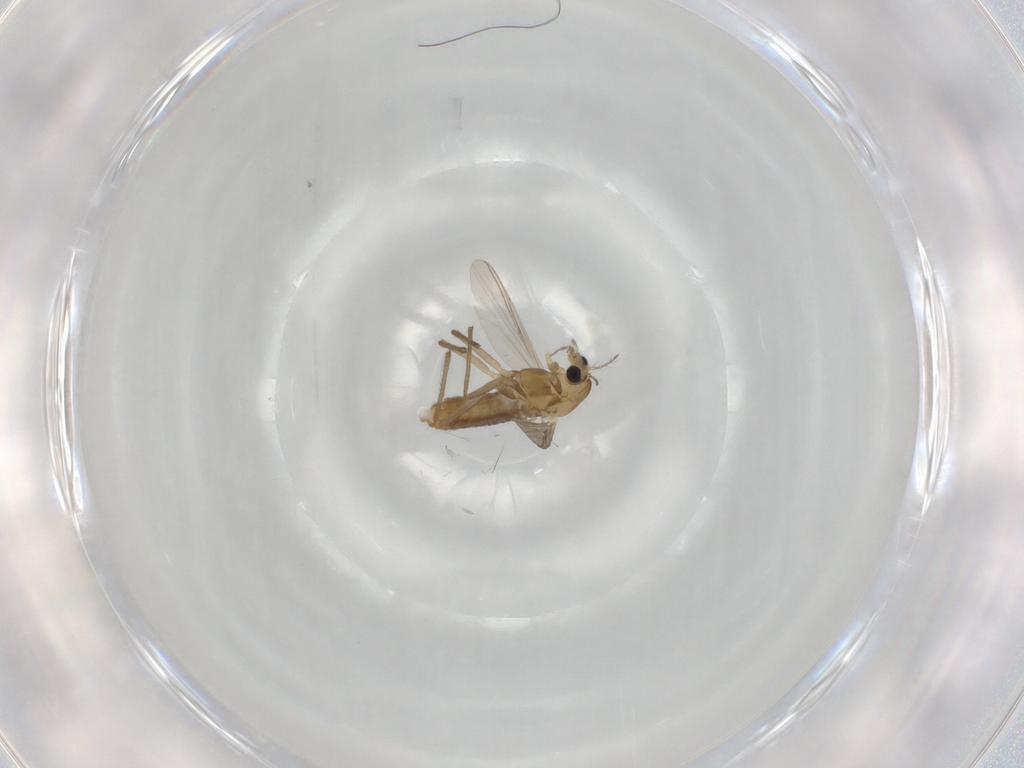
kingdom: Animalia
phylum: Arthropoda
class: Insecta
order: Diptera
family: Chironomidae
